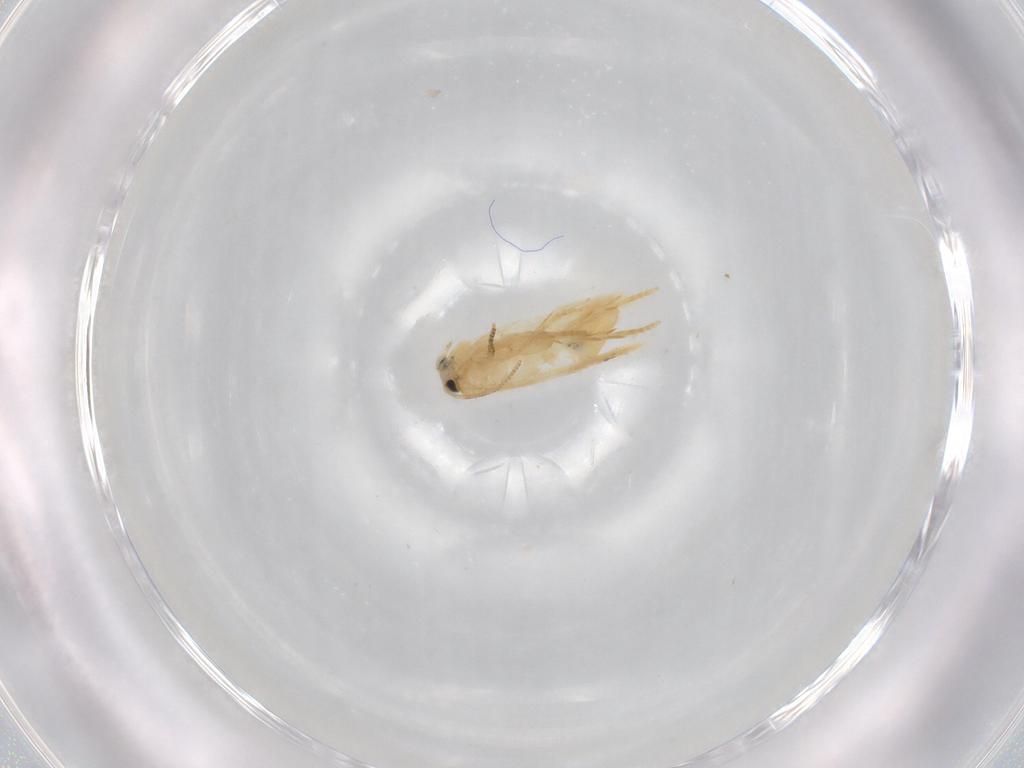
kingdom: Animalia
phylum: Arthropoda
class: Insecta
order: Lepidoptera
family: Nepticulidae
